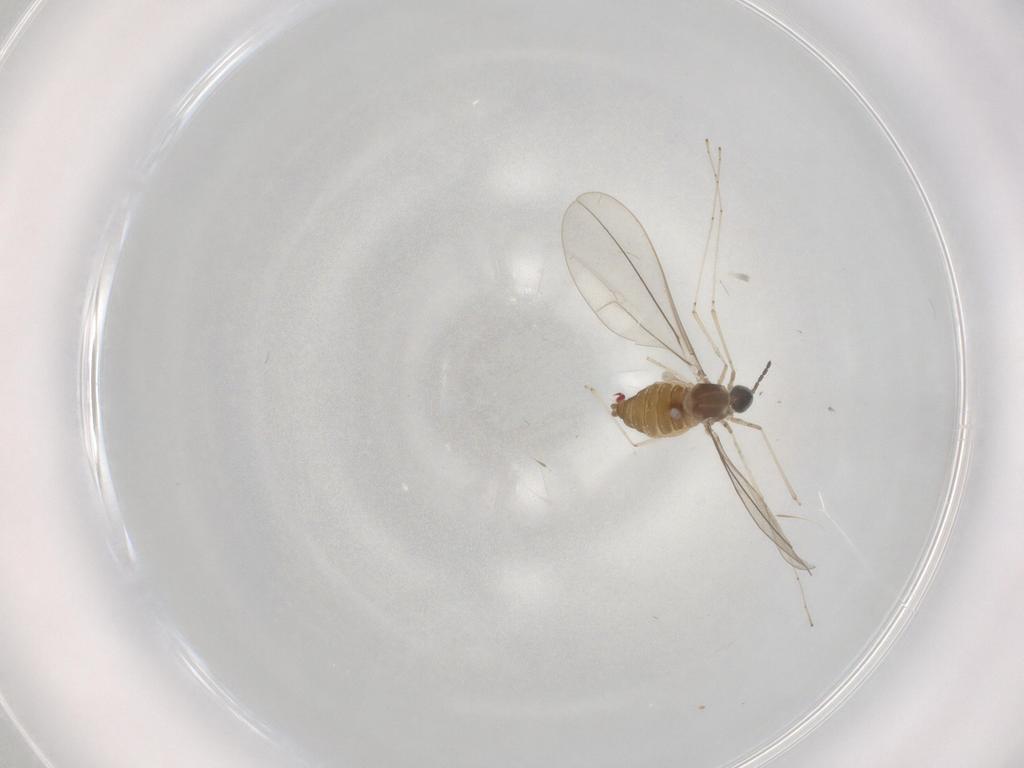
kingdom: Animalia
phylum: Arthropoda
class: Insecta
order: Diptera
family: Cecidomyiidae
